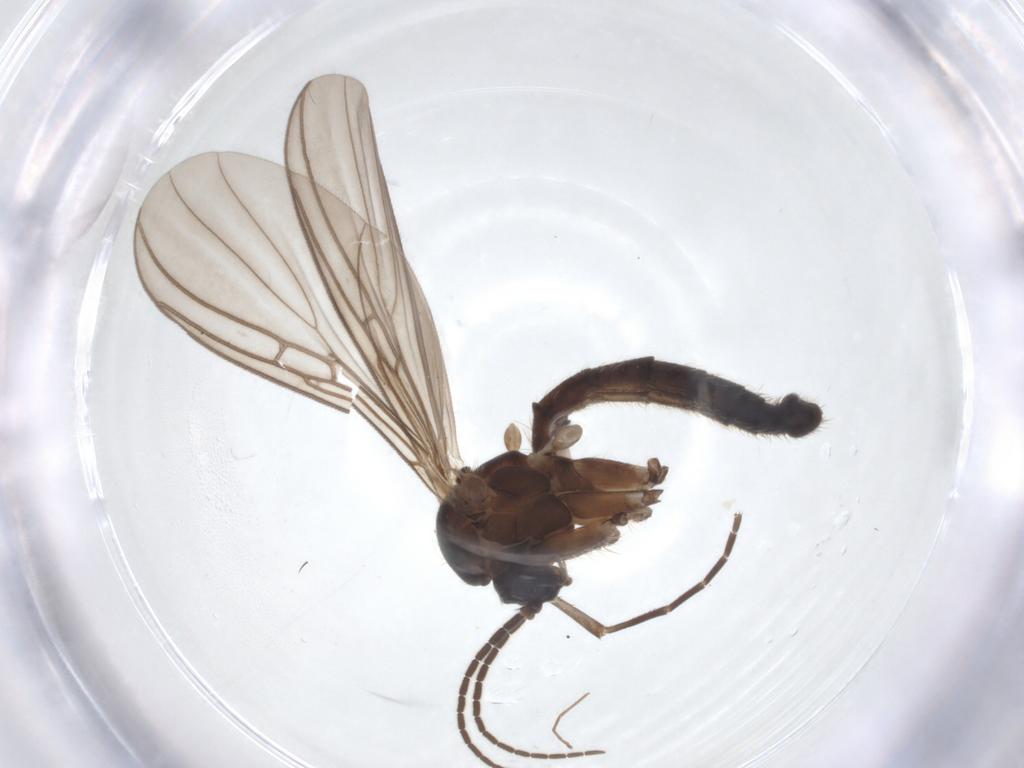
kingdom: Animalia
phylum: Arthropoda
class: Insecta
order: Diptera
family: Mycetophilidae
